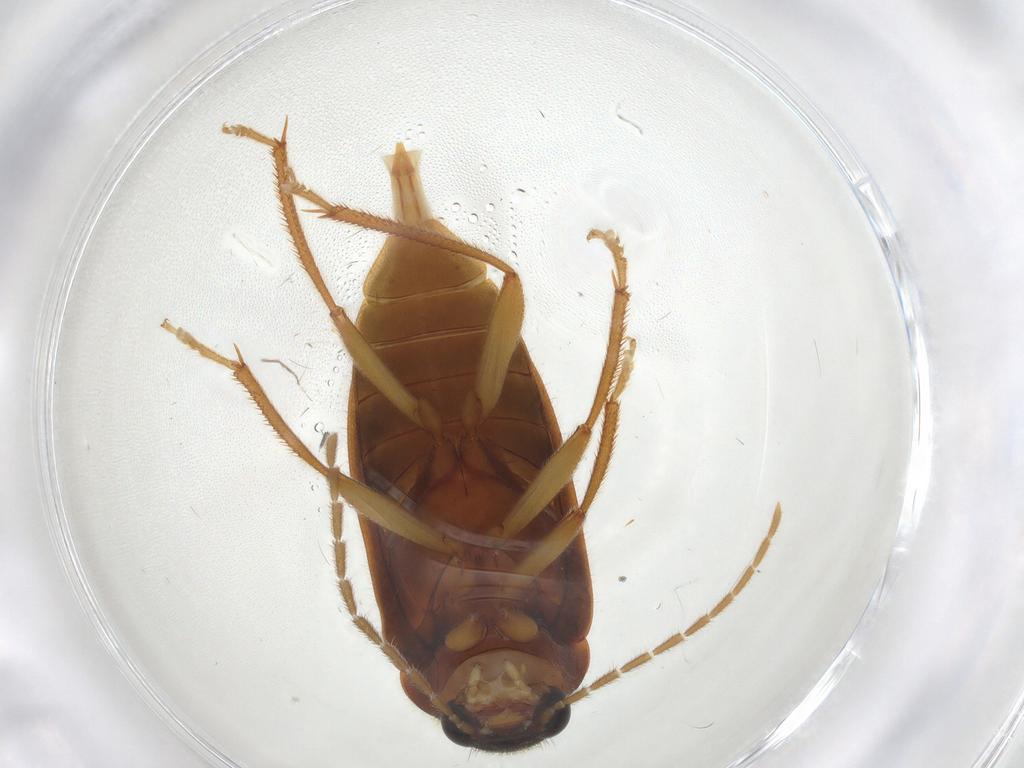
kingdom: Animalia
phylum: Arthropoda
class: Insecta
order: Coleoptera
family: Ptilodactylidae
